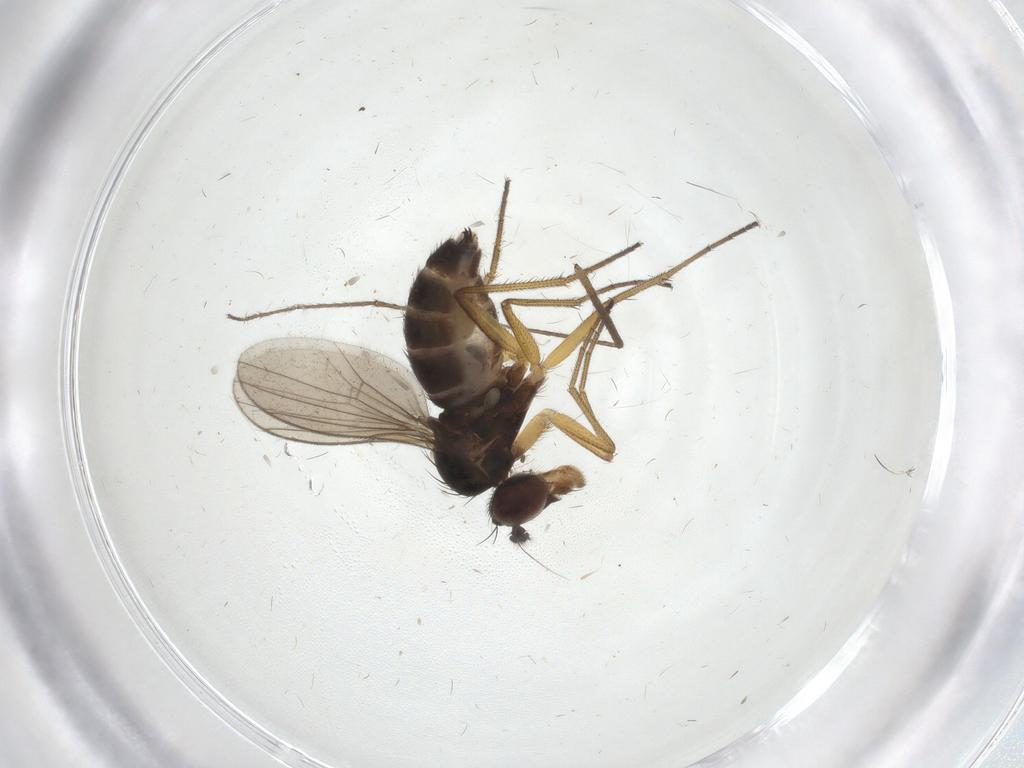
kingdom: Animalia
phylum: Arthropoda
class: Insecta
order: Diptera
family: Dolichopodidae
